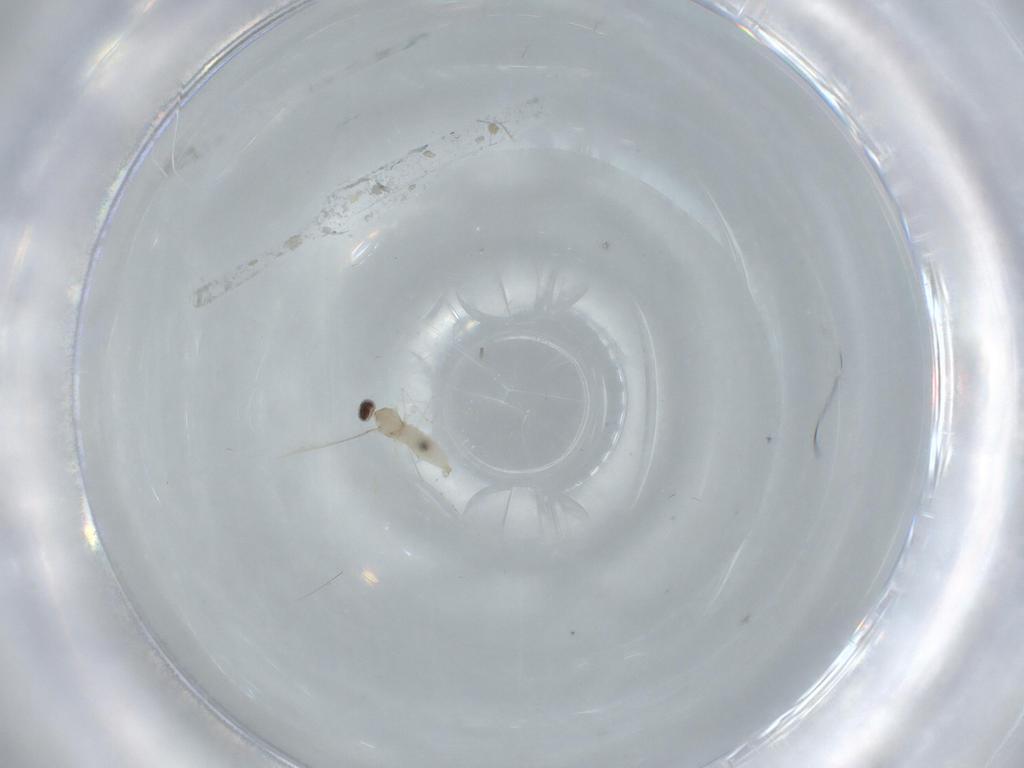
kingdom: Animalia
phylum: Arthropoda
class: Insecta
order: Diptera
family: Cecidomyiidae
